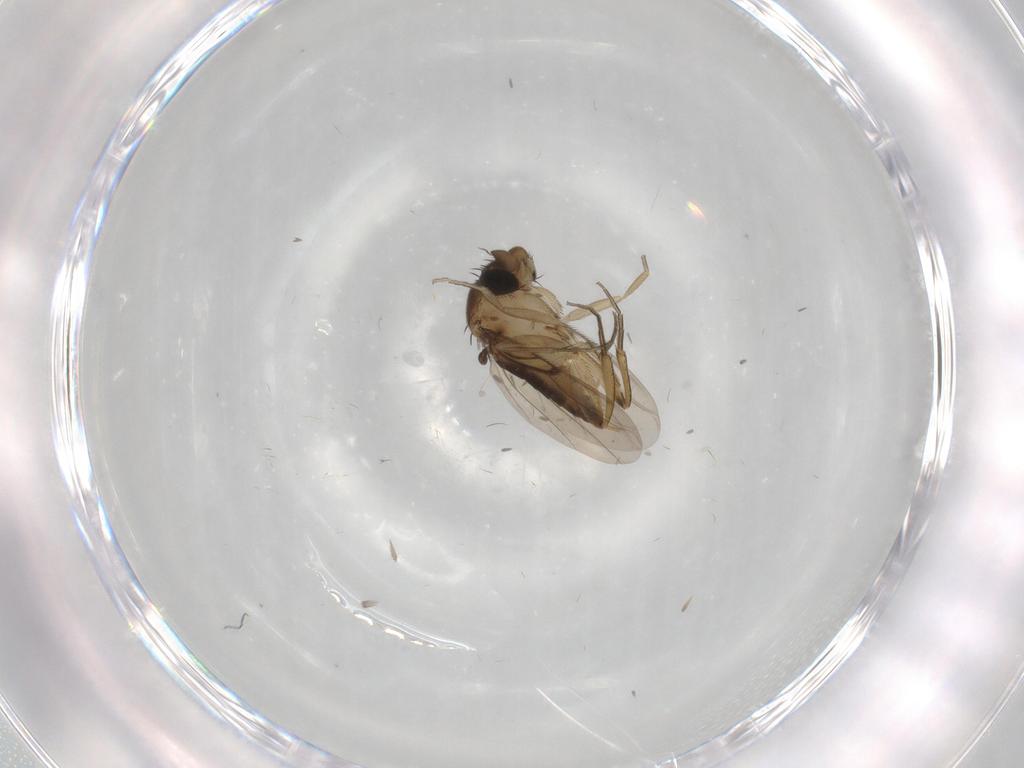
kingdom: Animalia
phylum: Arthropoda
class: Insecta
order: Diptera
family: Phoridae
